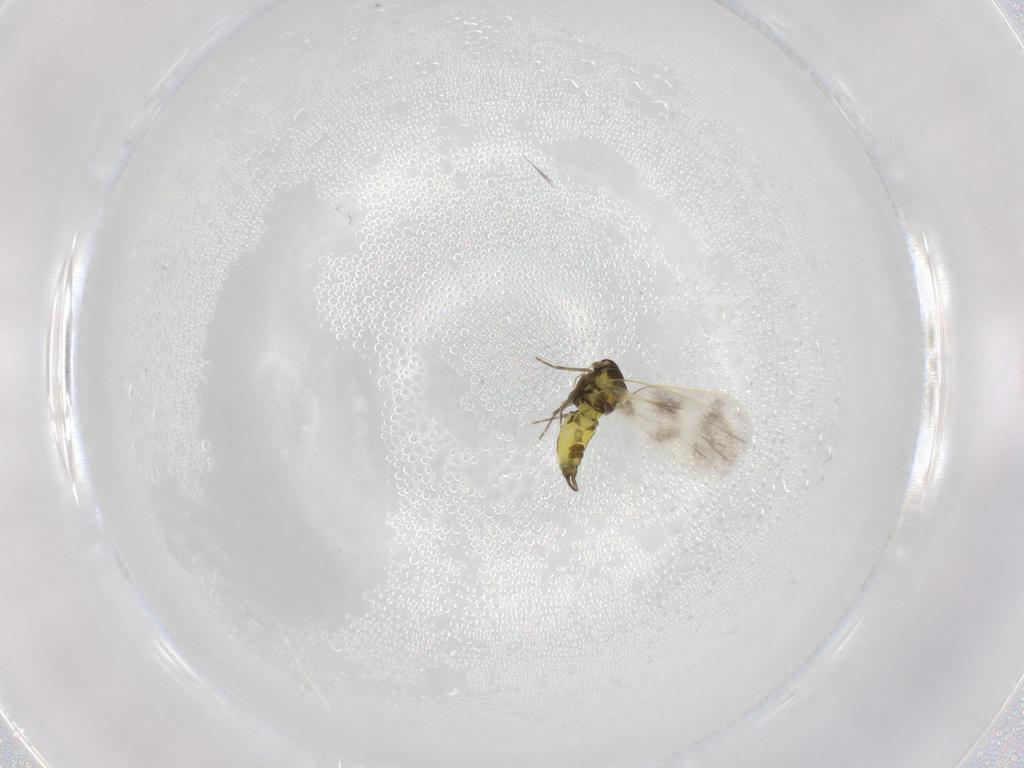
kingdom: Animalia
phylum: Arthropoda
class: Insecta
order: Hemiptera
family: Aleyrodidae
